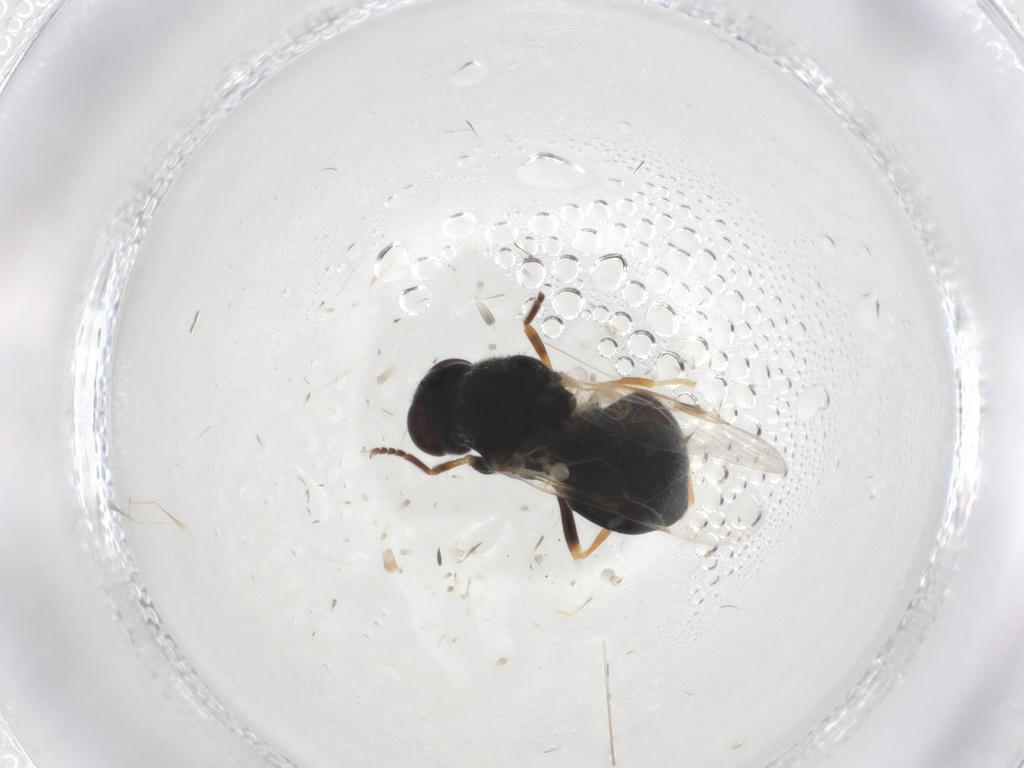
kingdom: Animalia
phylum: Arthropoda
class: Insecta
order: Diptera
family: Stratiomyidae
